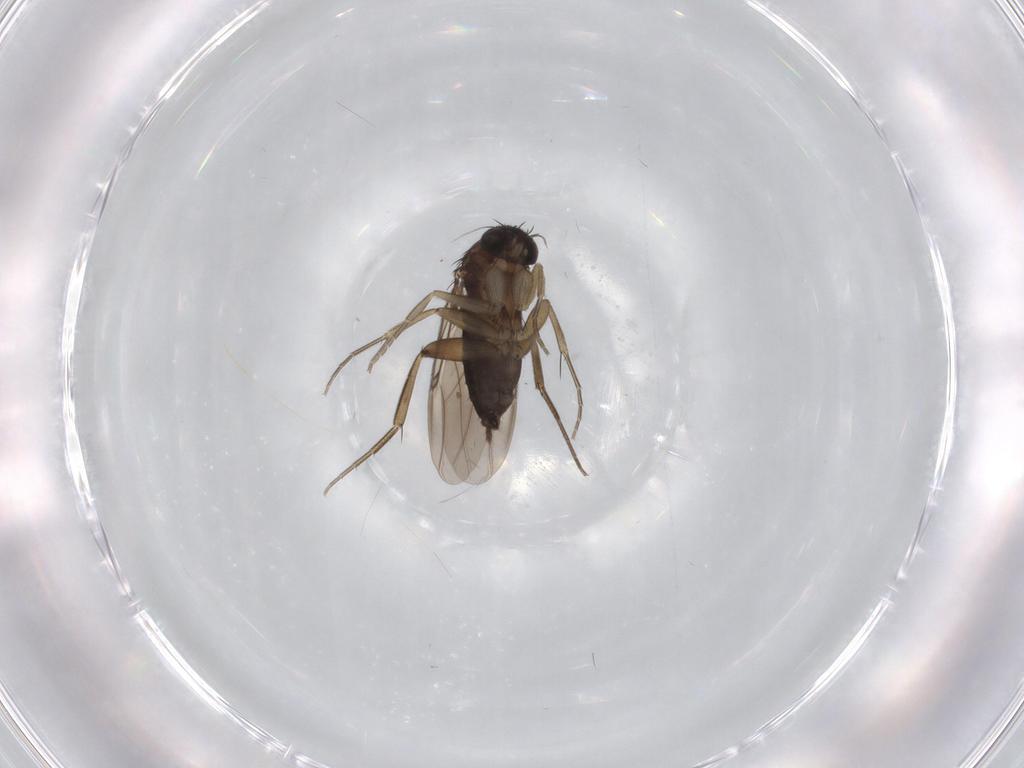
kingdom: Animalia
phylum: Arthropoda
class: Insecta
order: Diptera
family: Phoridae
